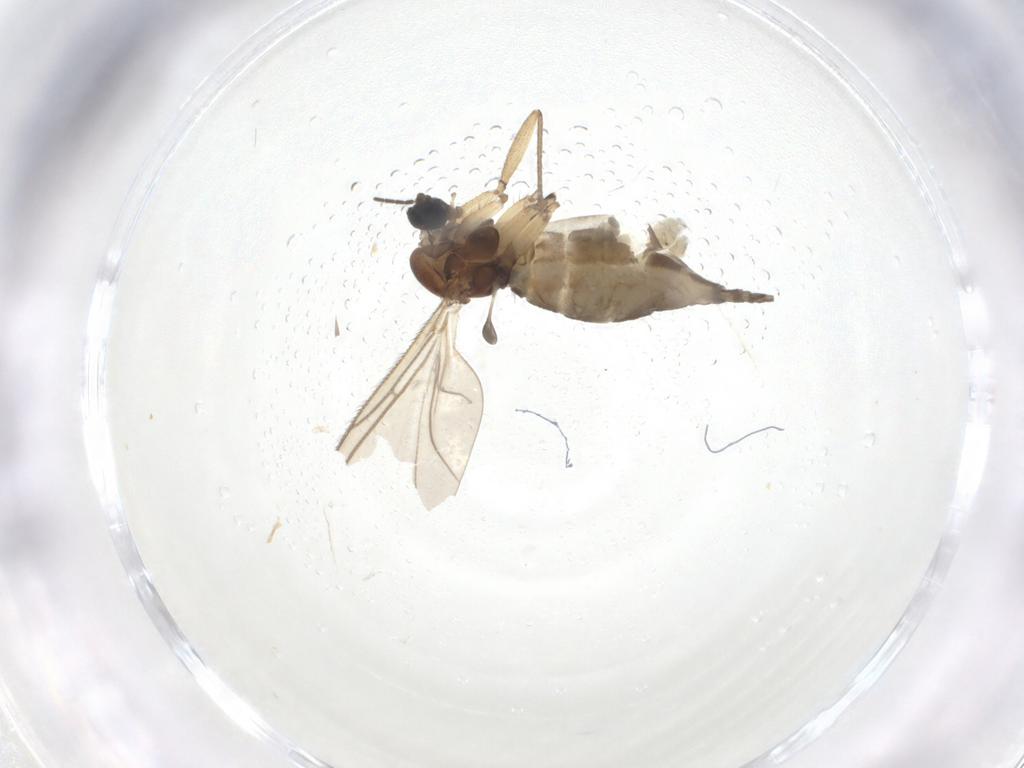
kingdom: Animalia
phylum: Arthropoda
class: Insecta
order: Diptera
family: Sciaridae
